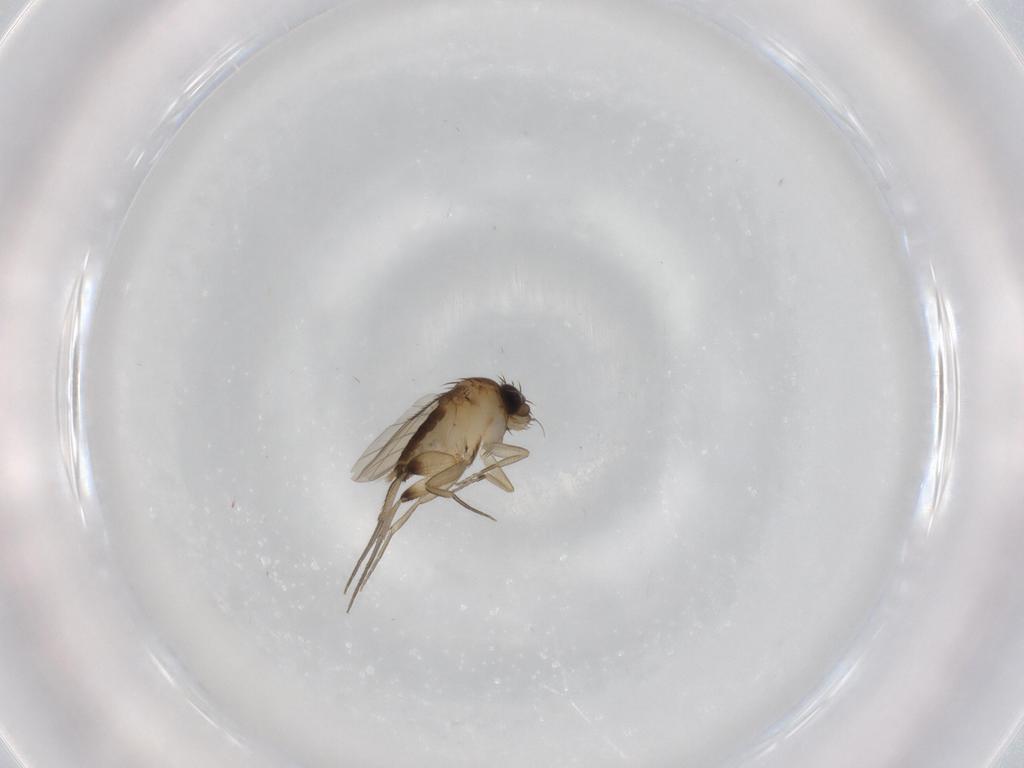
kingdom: Animalia
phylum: Arthropoda
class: Insecta
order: Diptera
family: Phoridae
